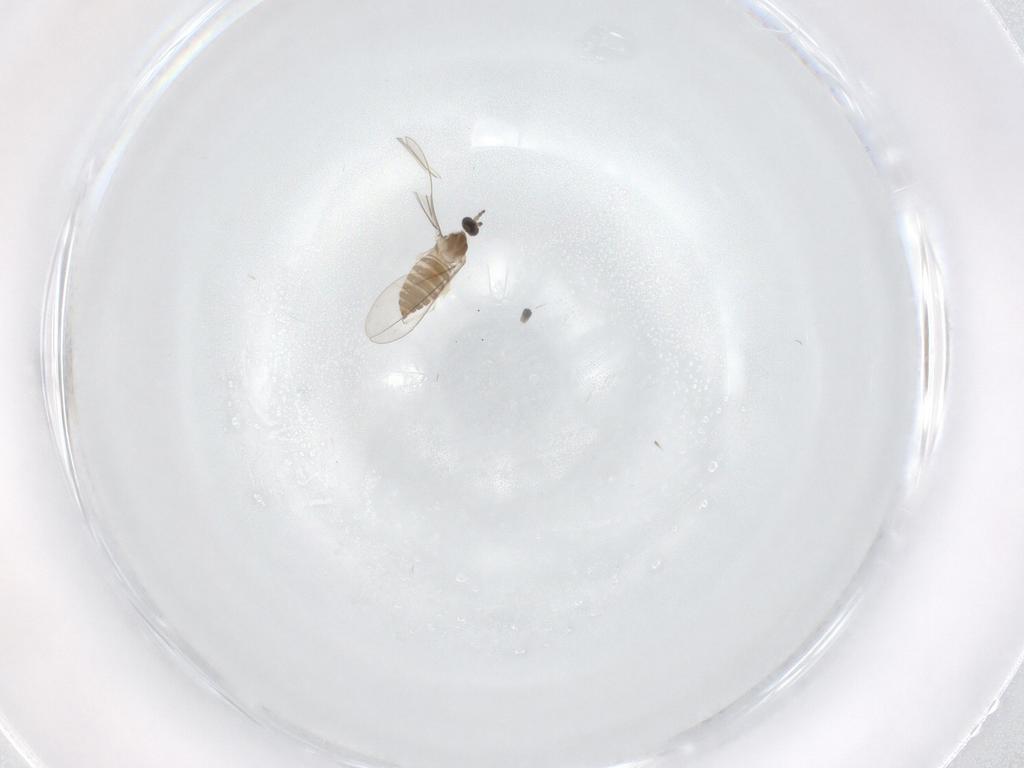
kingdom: Animalia
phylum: Arthropoda
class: Insecta
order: Diptera
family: Cecidomyiidae
